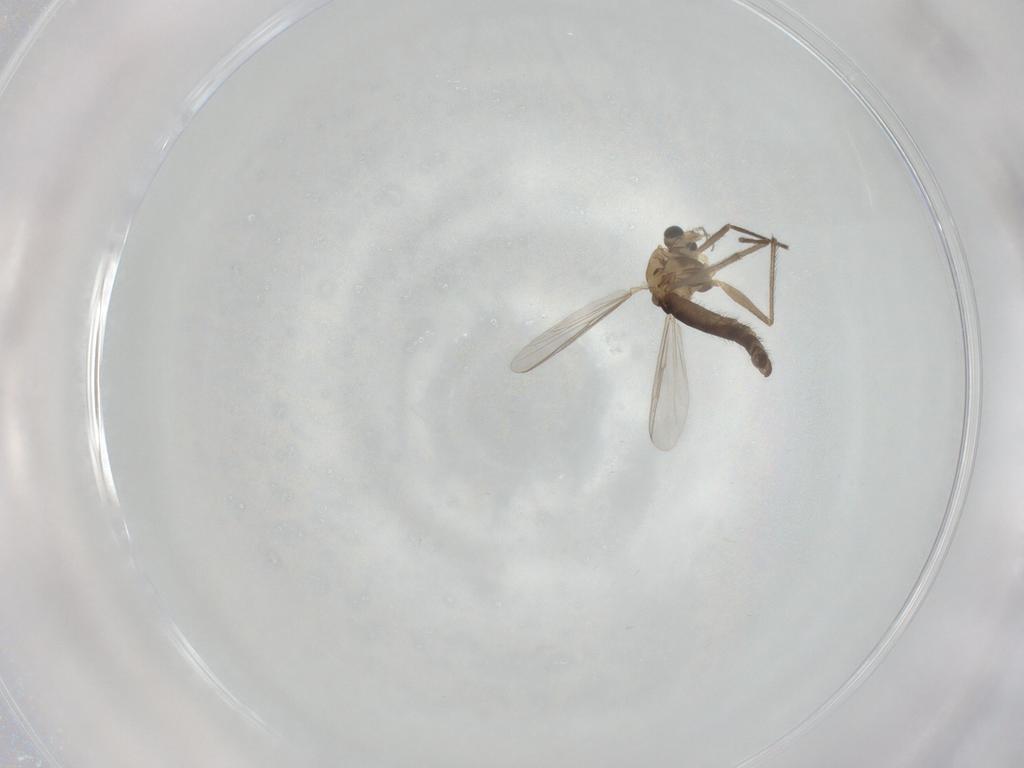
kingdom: Animalia
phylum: Arthropoda
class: Insecta
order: Diptera
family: Chironomidae
